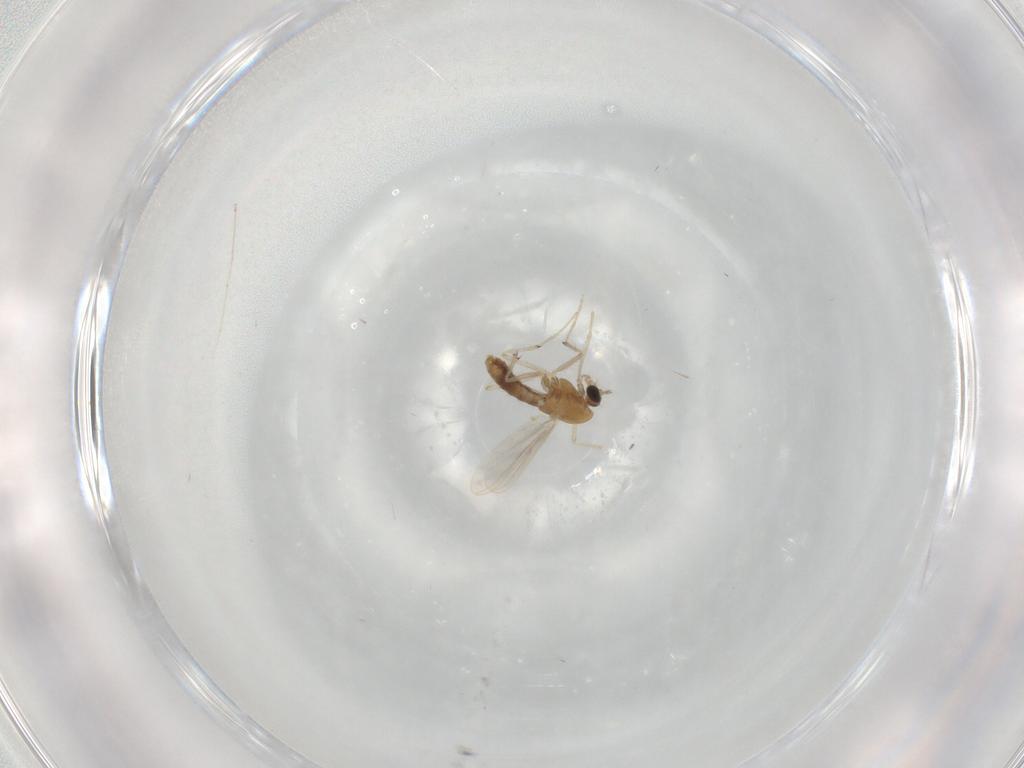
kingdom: Animalia
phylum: Arthropoda
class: Insecta
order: Diptera
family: Chironomidae
